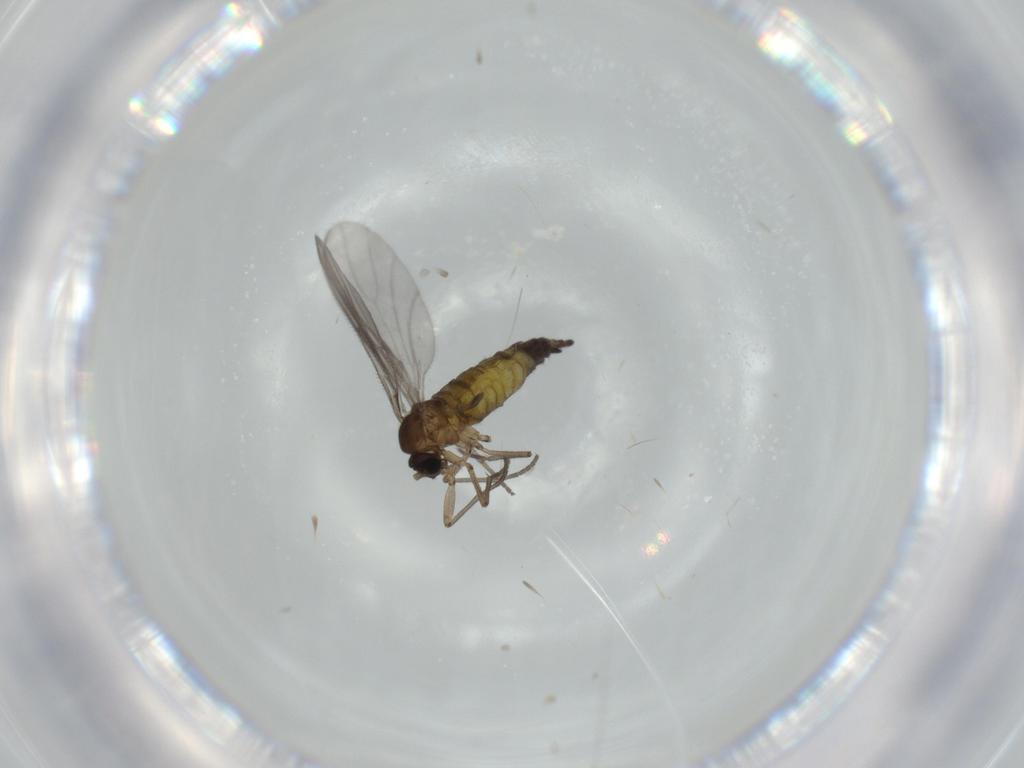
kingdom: Animalia
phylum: Arthropoda
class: Insecta
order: Diptera
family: Sciaridae
